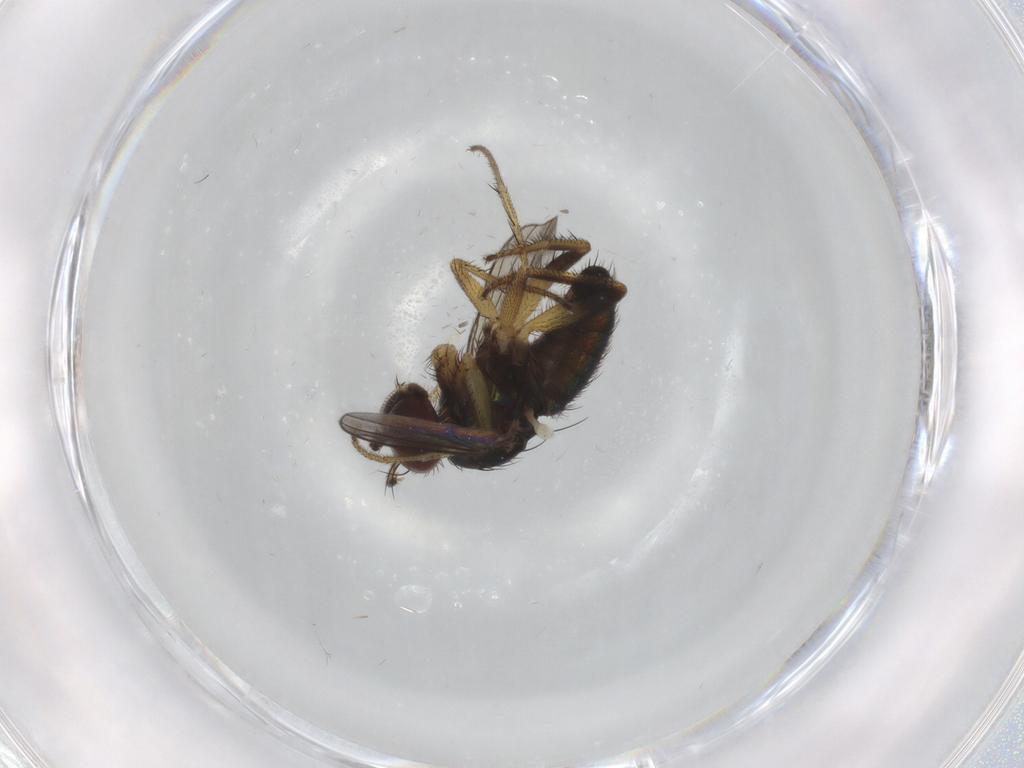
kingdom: Animalia
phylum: Arthropoda
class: Insecta
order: Diptera
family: Dolichopodidae
